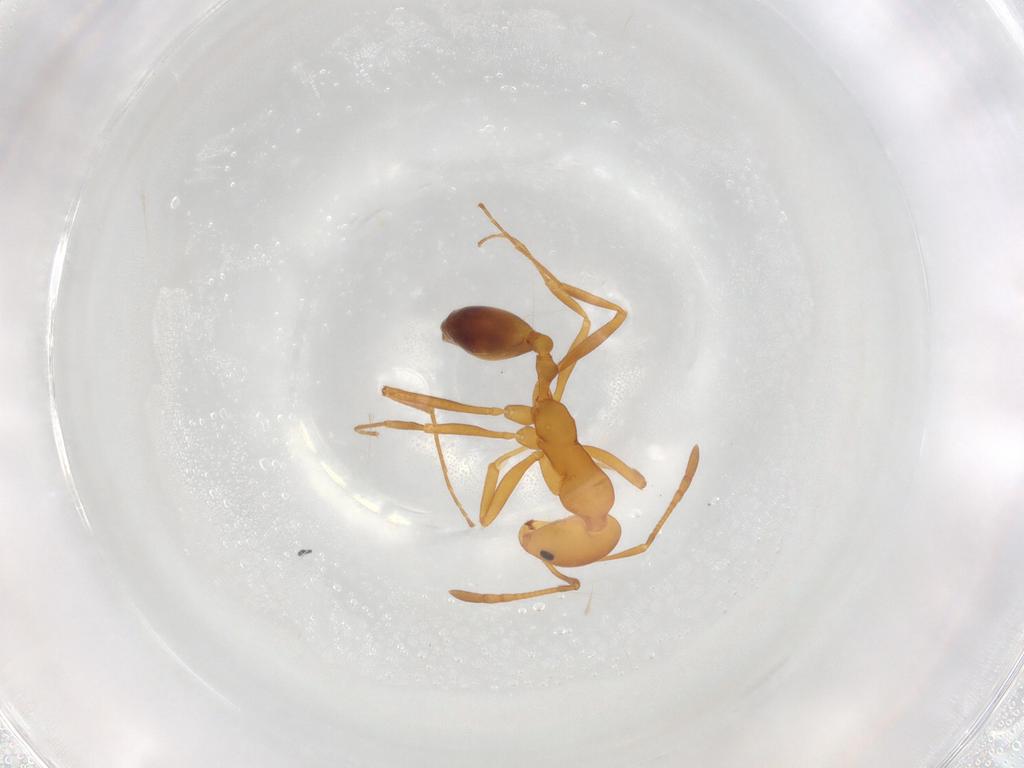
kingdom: Animalia
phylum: Arthropoda
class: Insecta
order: Hymenoptera
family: Formicidae
